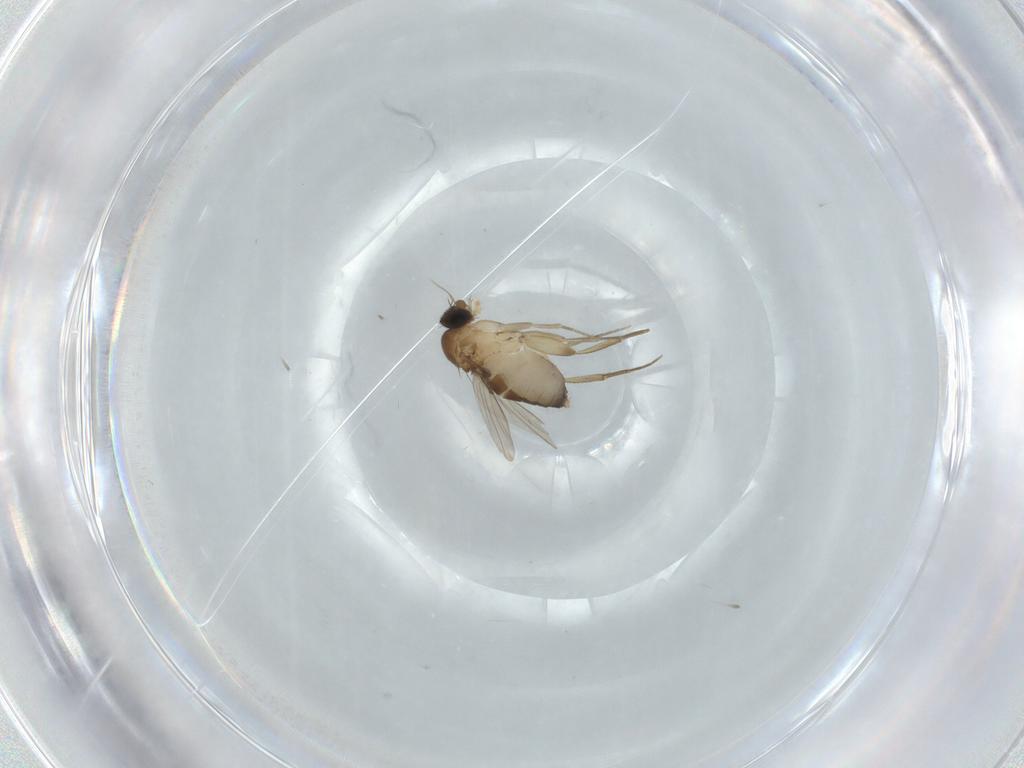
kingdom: Animalia
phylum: Arthropoda
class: Insecta
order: Diptera
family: Phoridae
